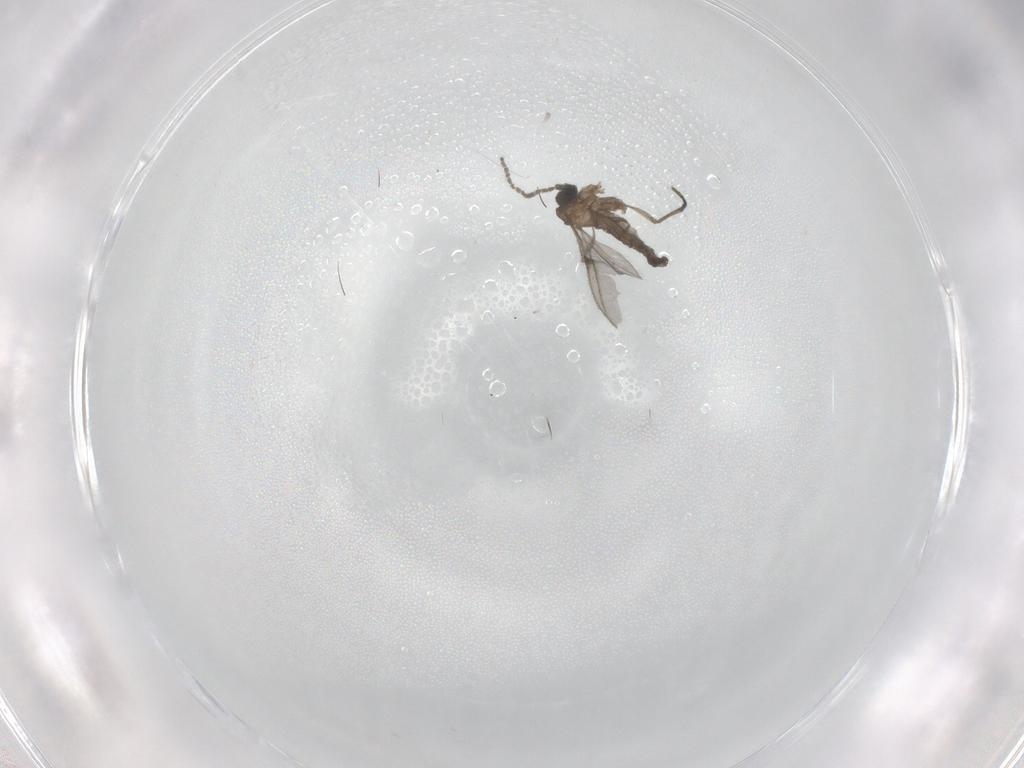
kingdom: Animalia
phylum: Arthropoda
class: Insecta
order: Diptera
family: Sciaridae
